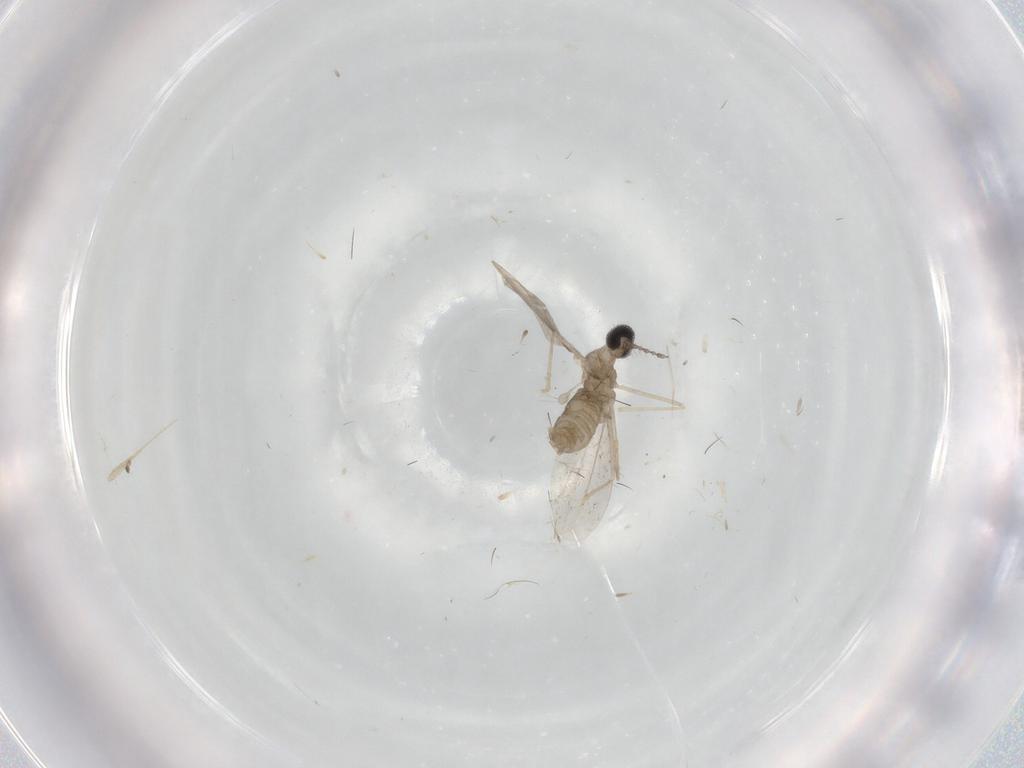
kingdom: Animalia
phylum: Arthropoda
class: Insecta
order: Diptera
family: Cecidomyiidae
